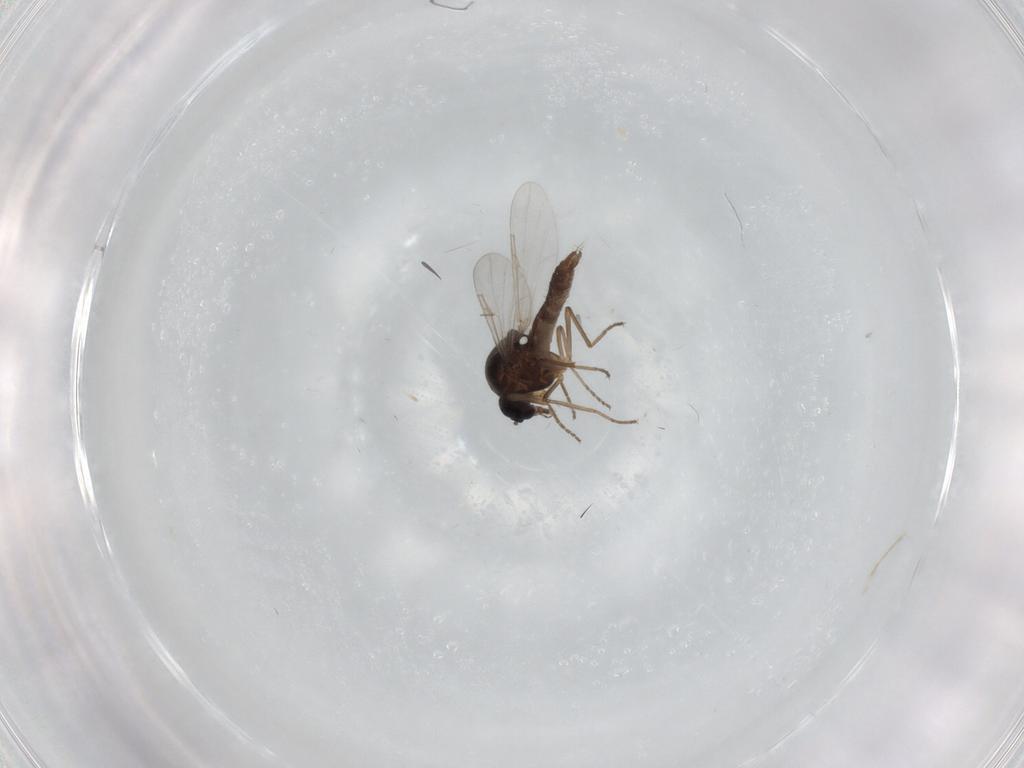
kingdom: Animalia
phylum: Arthropoda
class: Insecta
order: Diptera
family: Ceratopogonidae
